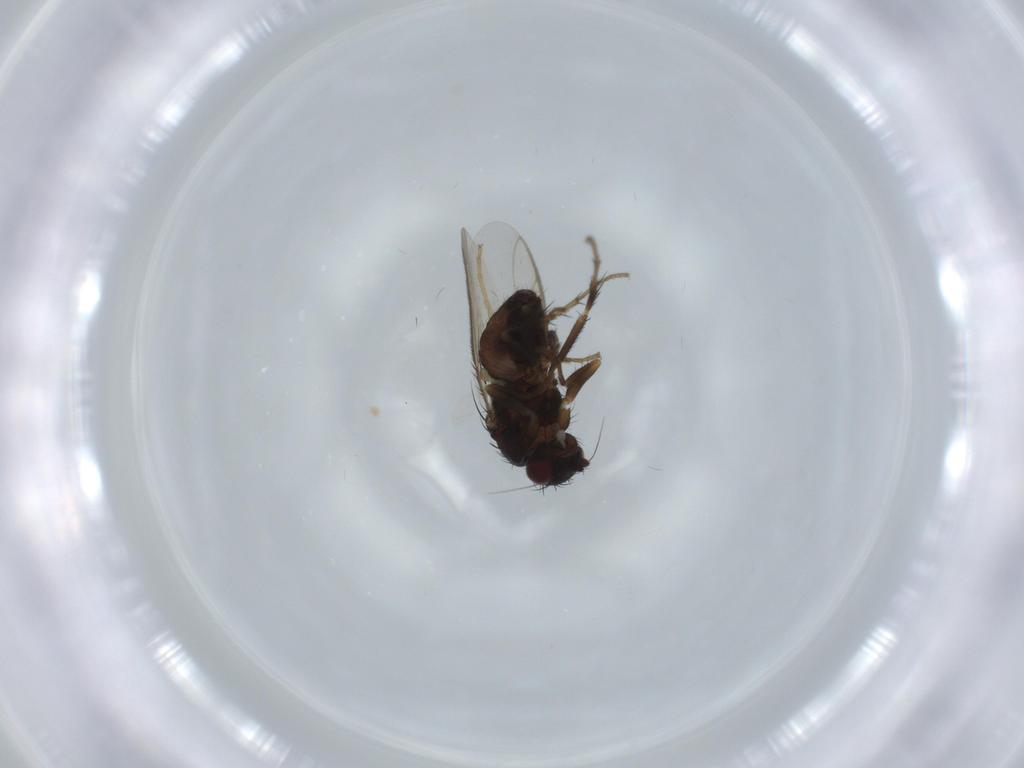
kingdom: Animalia
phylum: Arthropoda
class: Insecta
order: Diptera
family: Sphaeroceridae
